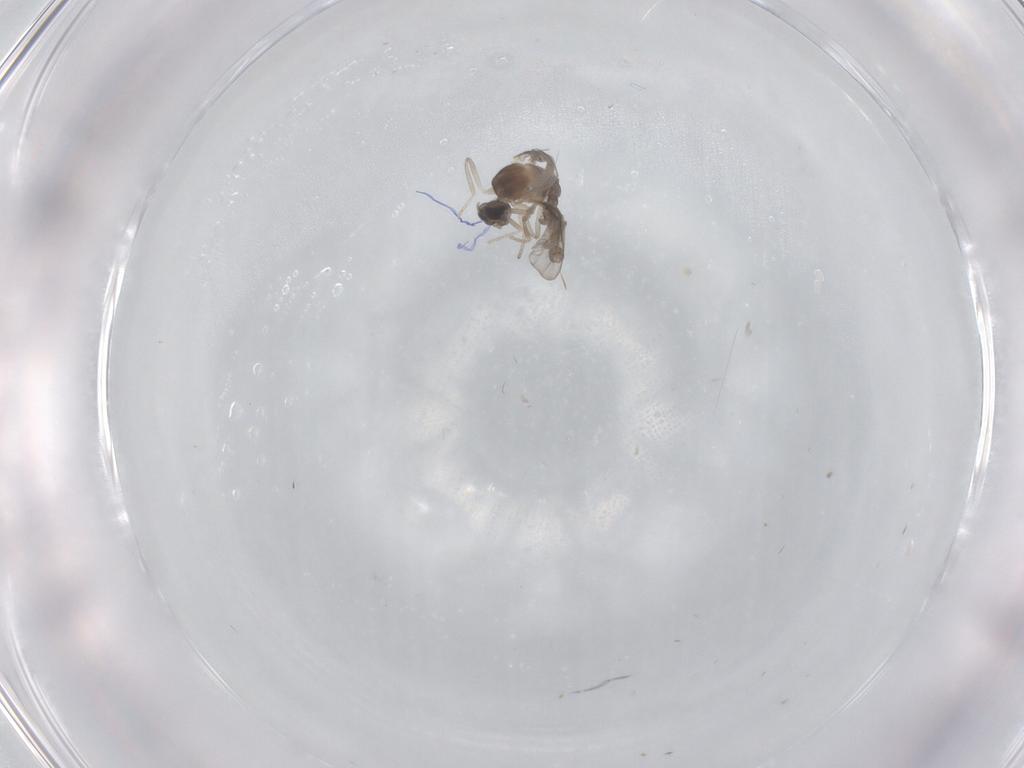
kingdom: Animalia
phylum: Arthropoda
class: Insecta
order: Diptera
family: Cecidomyiidae
